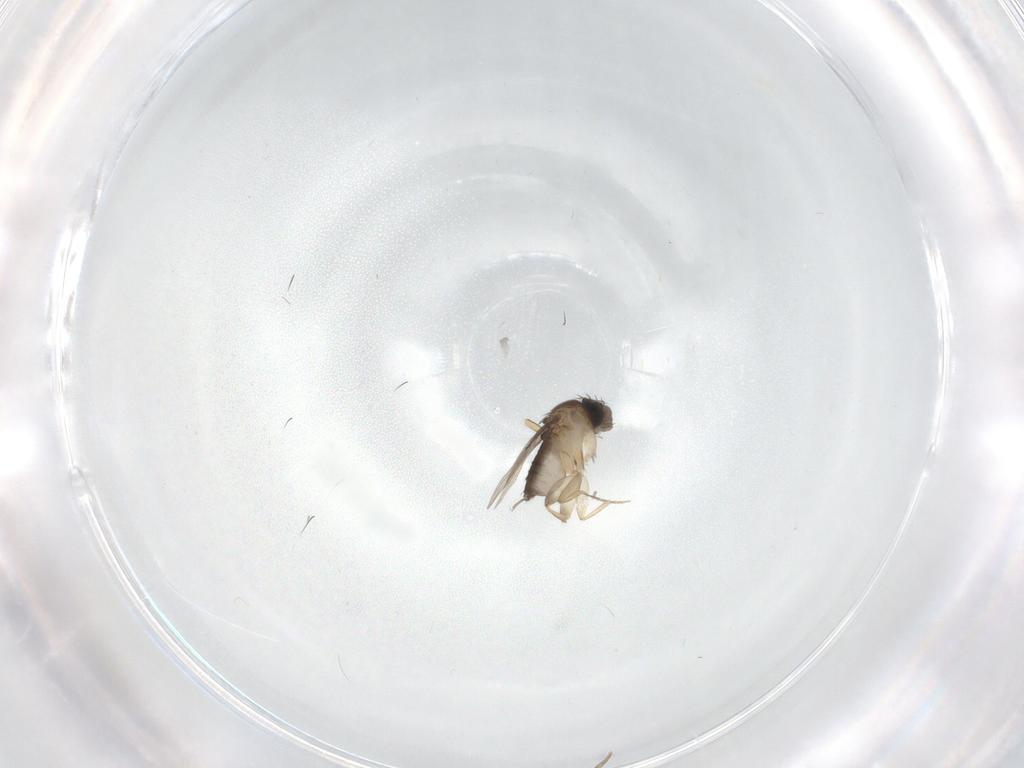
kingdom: Animalia
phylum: Arthropoda
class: Insecta
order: Diptera
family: Phoridae
